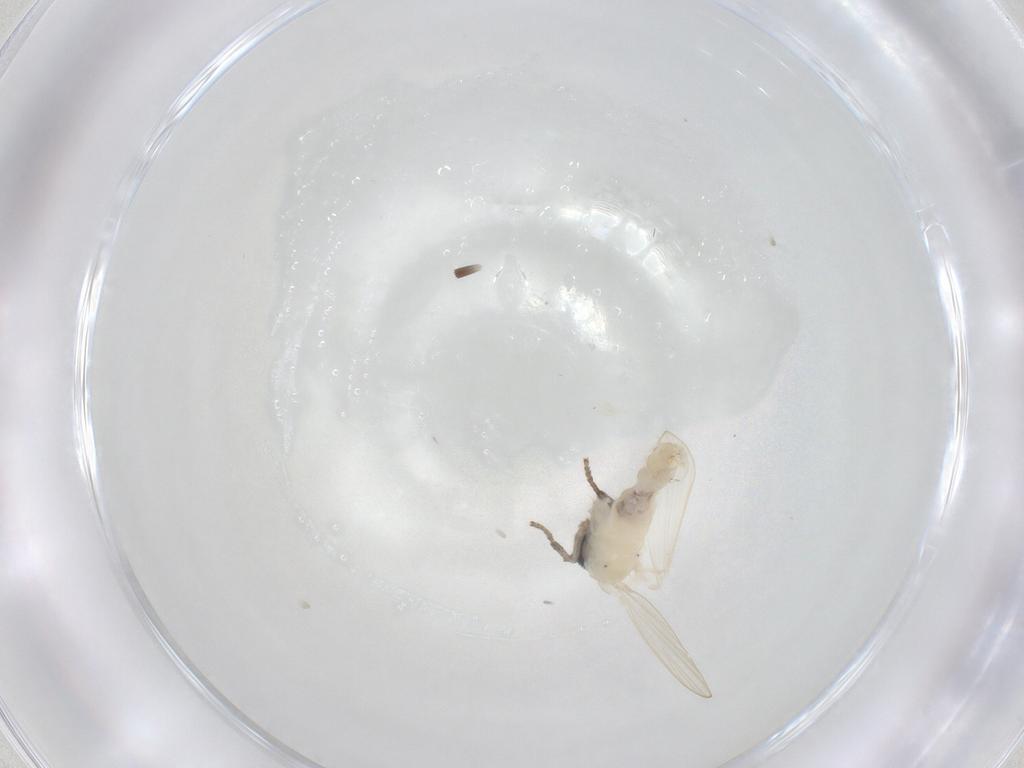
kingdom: Animalia
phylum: Arthropoda
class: Insecta
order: Diptera
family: Psychodidae
